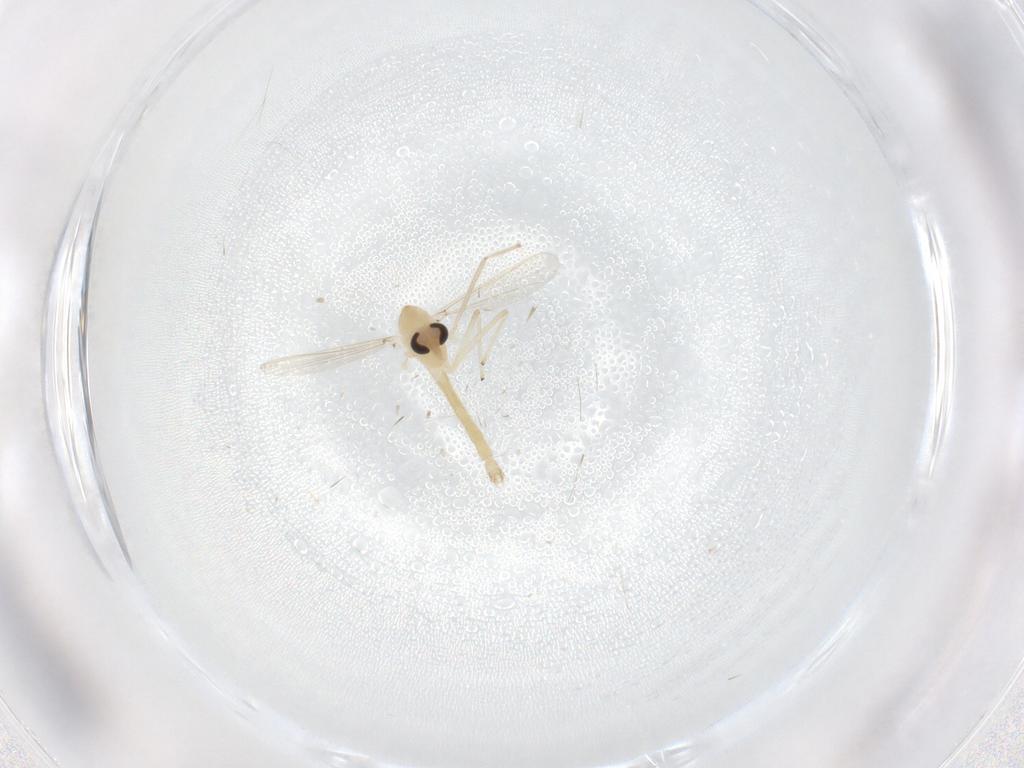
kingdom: Animalia
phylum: Arthropoda
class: Insecta
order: Diptera
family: Chironomidae
